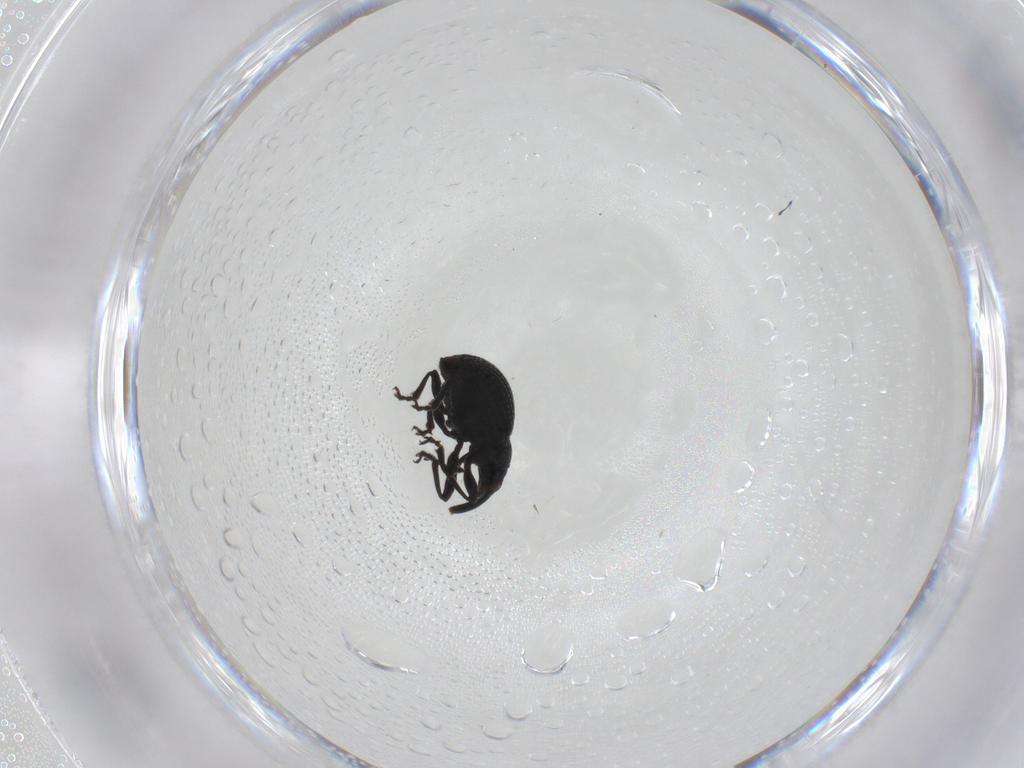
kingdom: Animalia
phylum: Arthropoda
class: Insecta
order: Coleoptera
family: Brentidae
